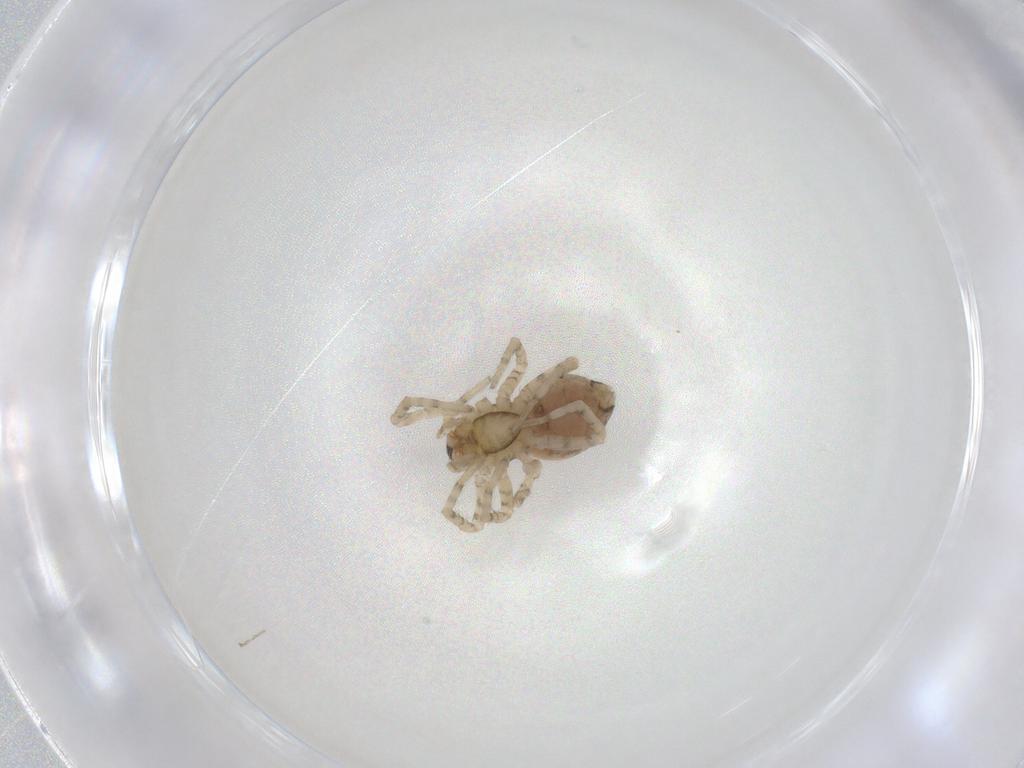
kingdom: Animalia
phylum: Arthropoda
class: Arachnida
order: Araneae
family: Amaurobiidae
